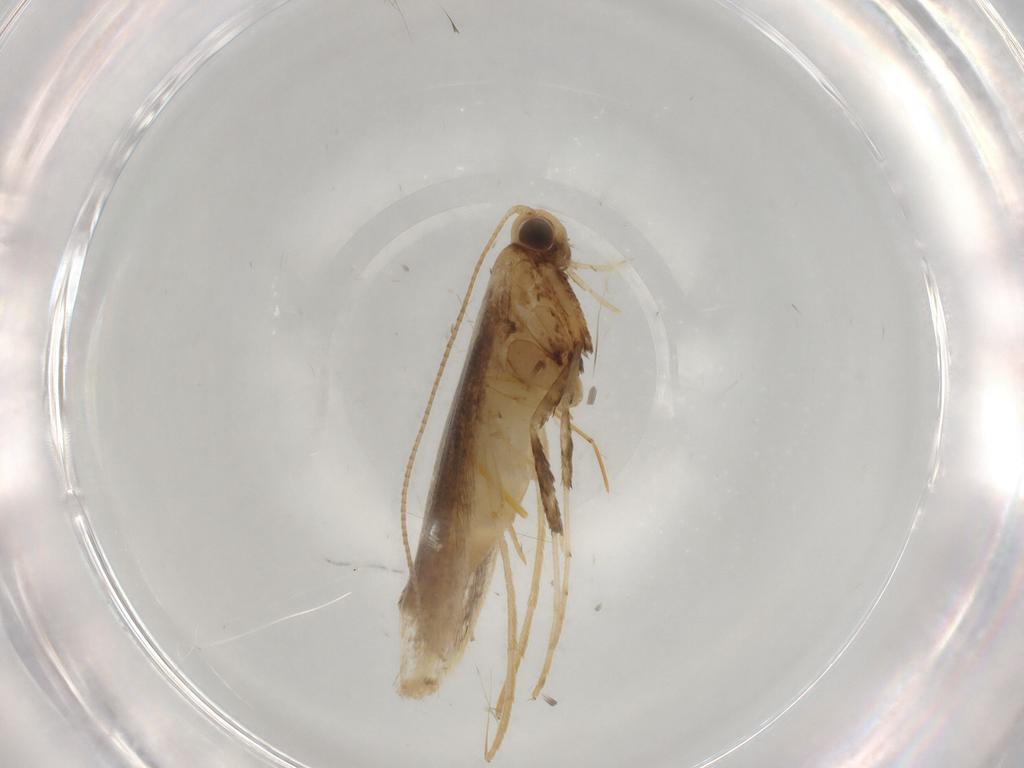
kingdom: Animalia
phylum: Arthropoda
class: Insecta
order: Lepidoptera
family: Gracillariidae
